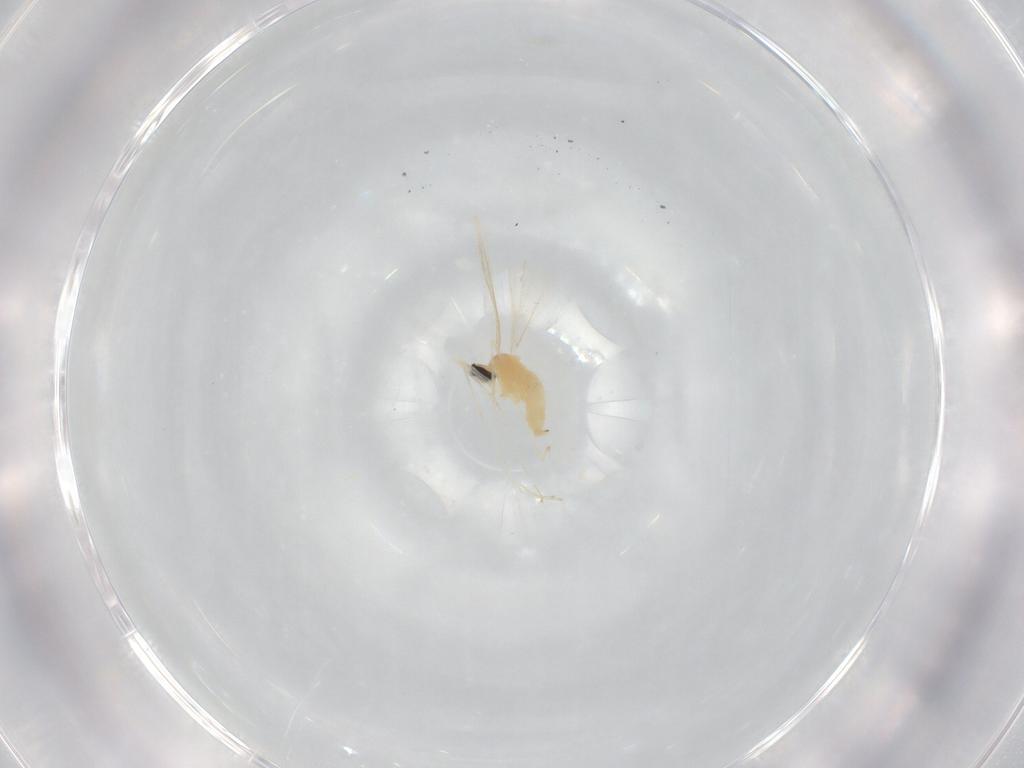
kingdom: Animalia
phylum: Arthropoda
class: Insecta
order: Diptera
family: Cecidomyiidae
